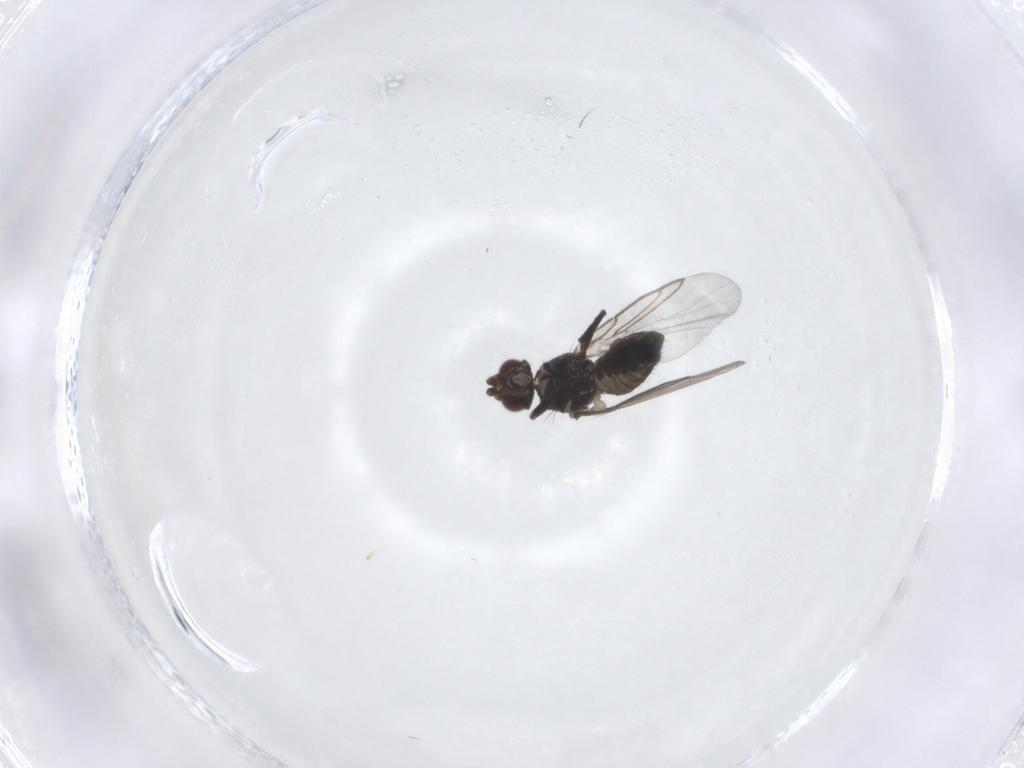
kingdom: Animalia
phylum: Arthropoda
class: Insecta
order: Diptera
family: Agromyzidae
